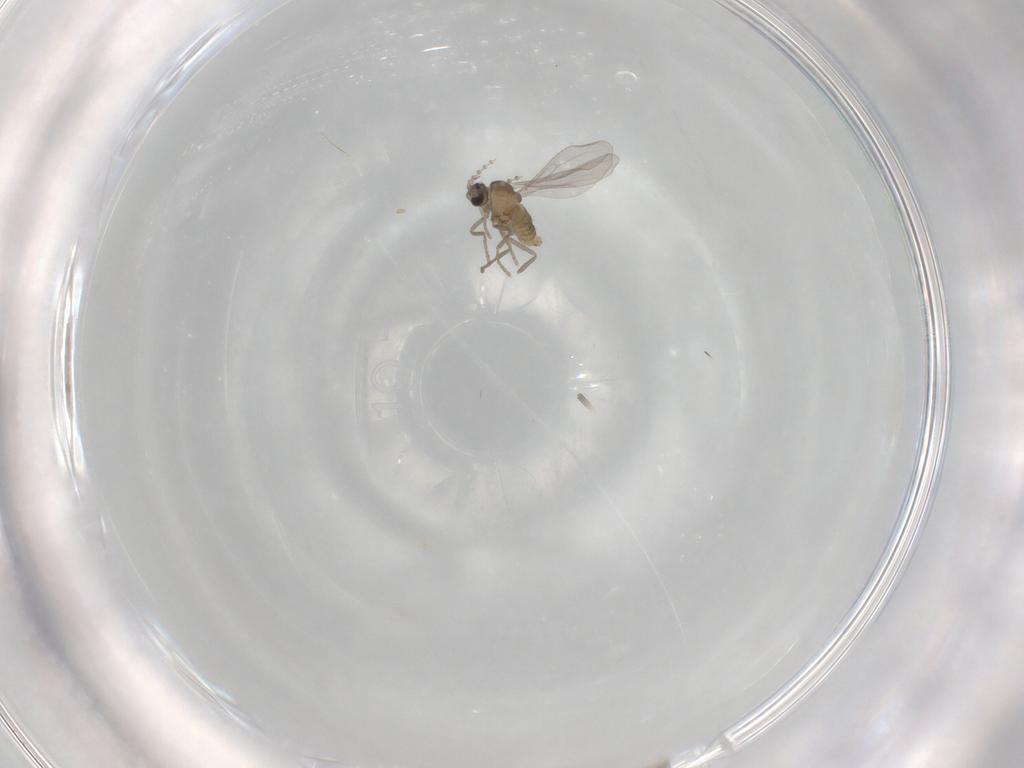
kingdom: Animalia
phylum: Arthropoda
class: Insecta
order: Diptera
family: Cecidomyiidae
